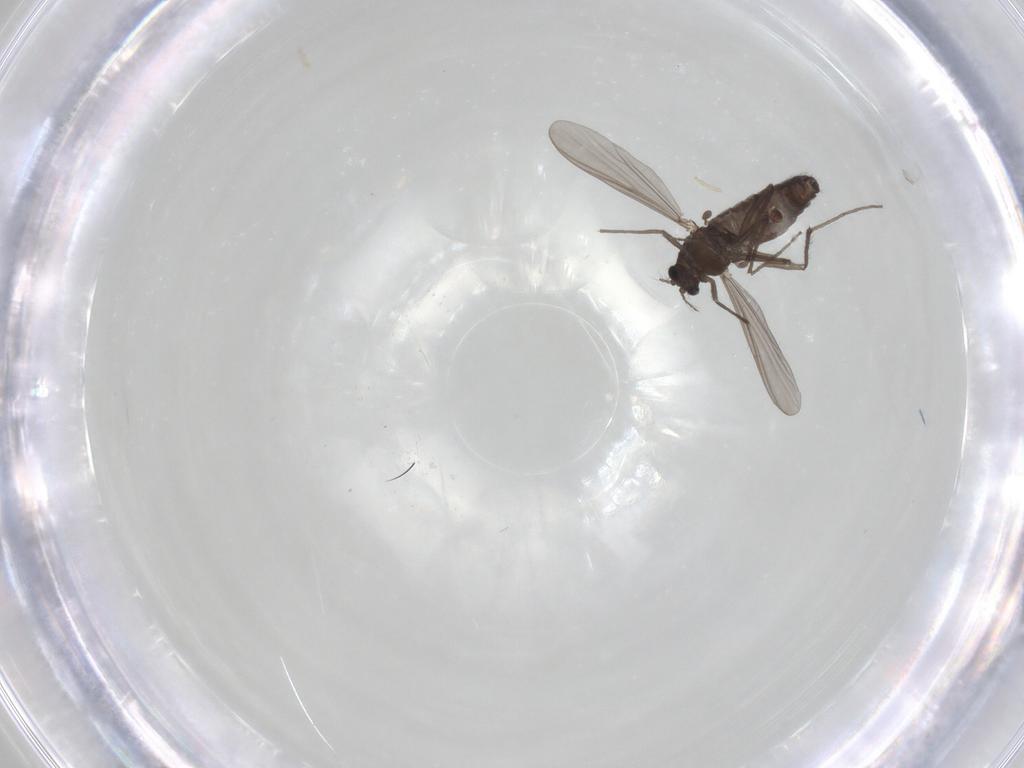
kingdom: Animalia
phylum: Arthropoda
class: Insecta
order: Diptera
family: Chironomidae
